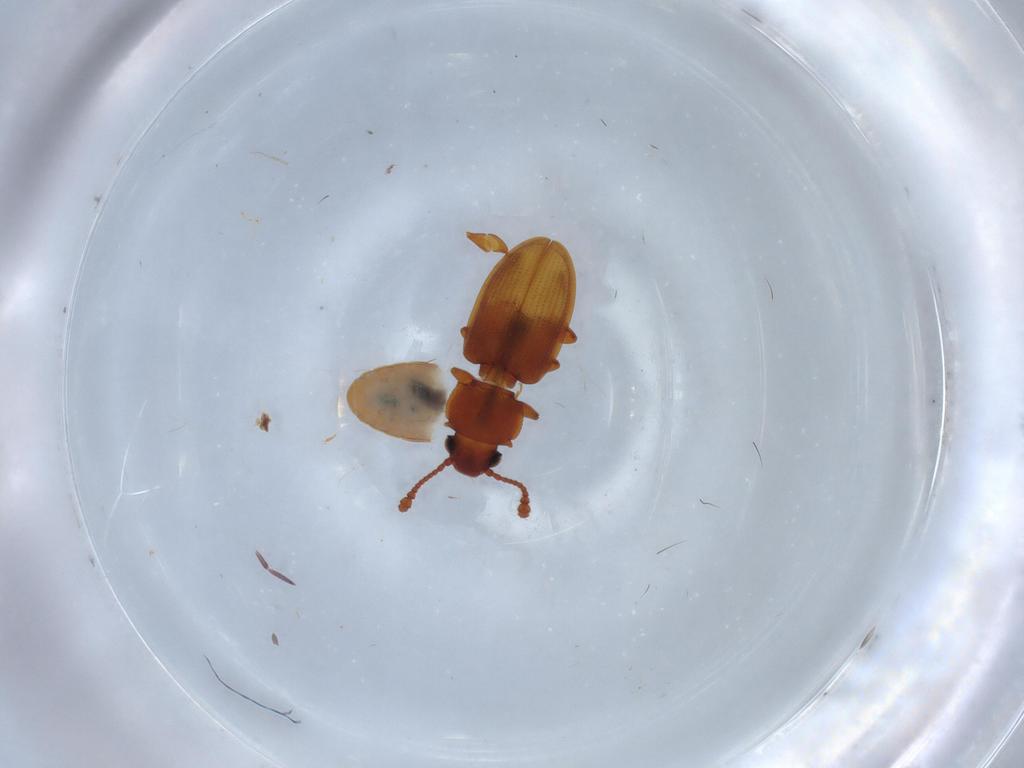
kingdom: Animalia
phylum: Arthropoda
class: Insecta
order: Coleoptera
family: Silvanidae
